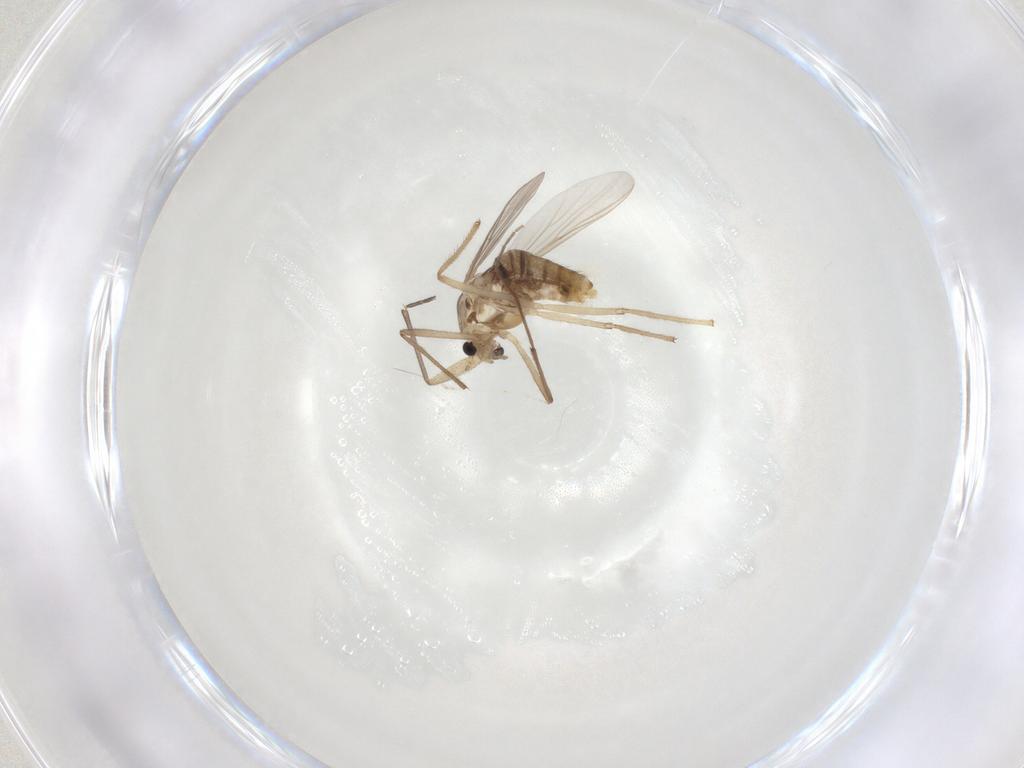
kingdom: Animalia
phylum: Arthropoda
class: Insecta
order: Diptera
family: Chironomidae
